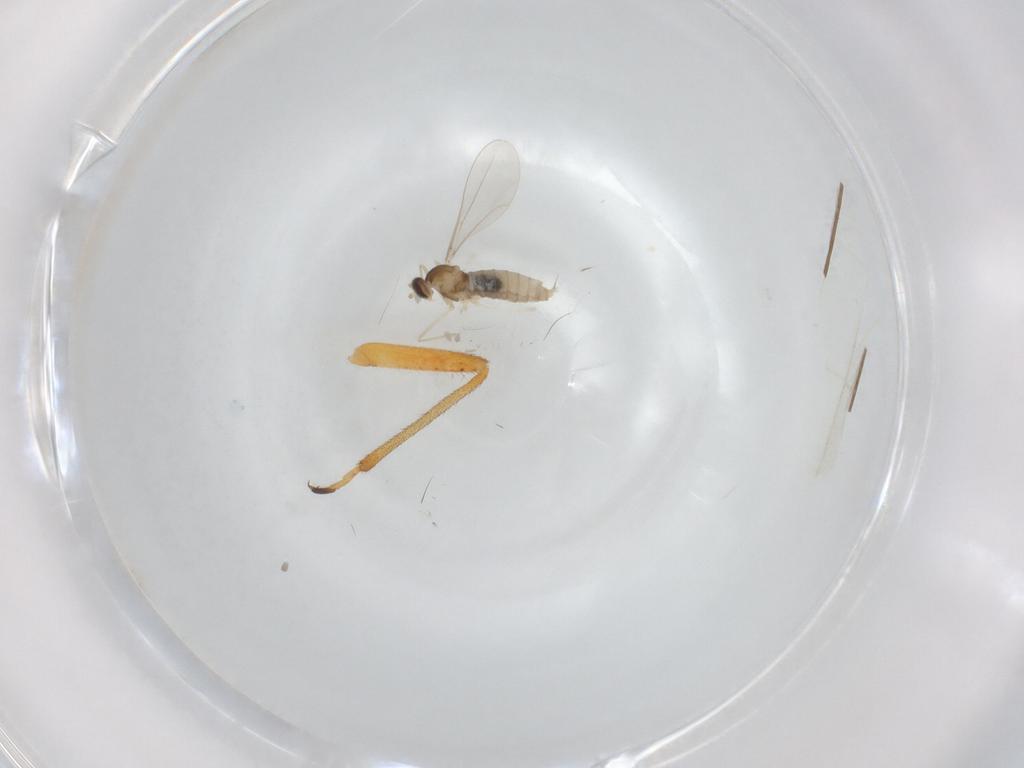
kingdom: Animalia
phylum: Arthropoda
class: Insecta
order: Diptera
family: Cecidomyiidae
